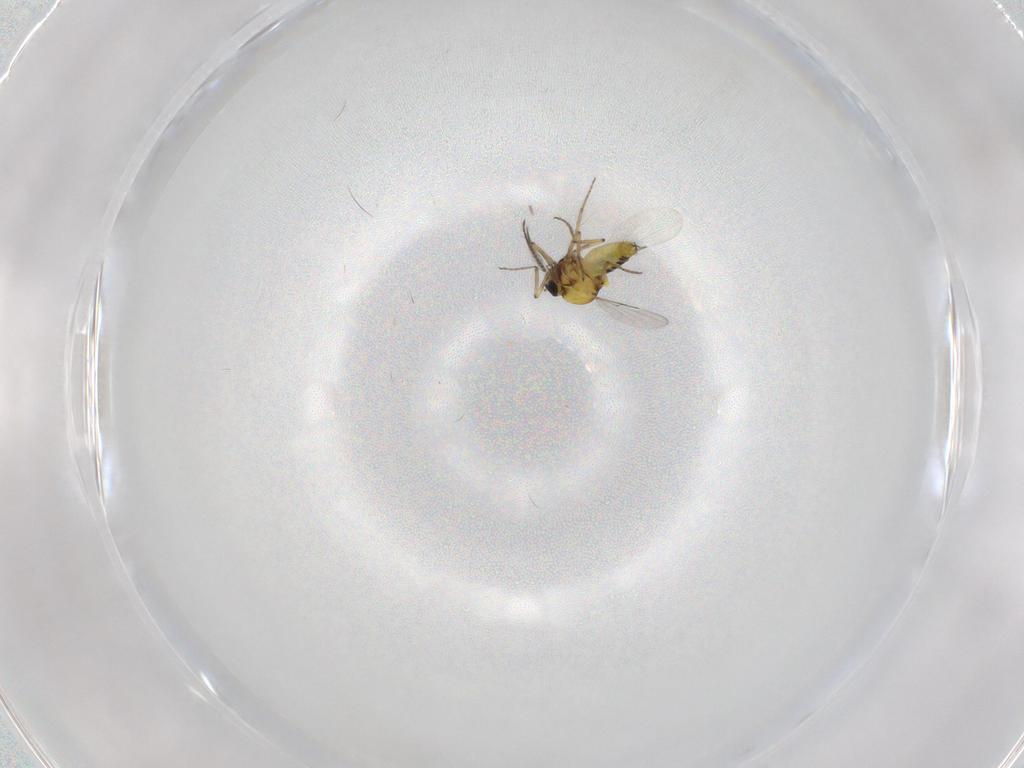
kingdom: Animalia
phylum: Arthropoda
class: Insecta
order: Diptera
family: Ceratopogonidae
